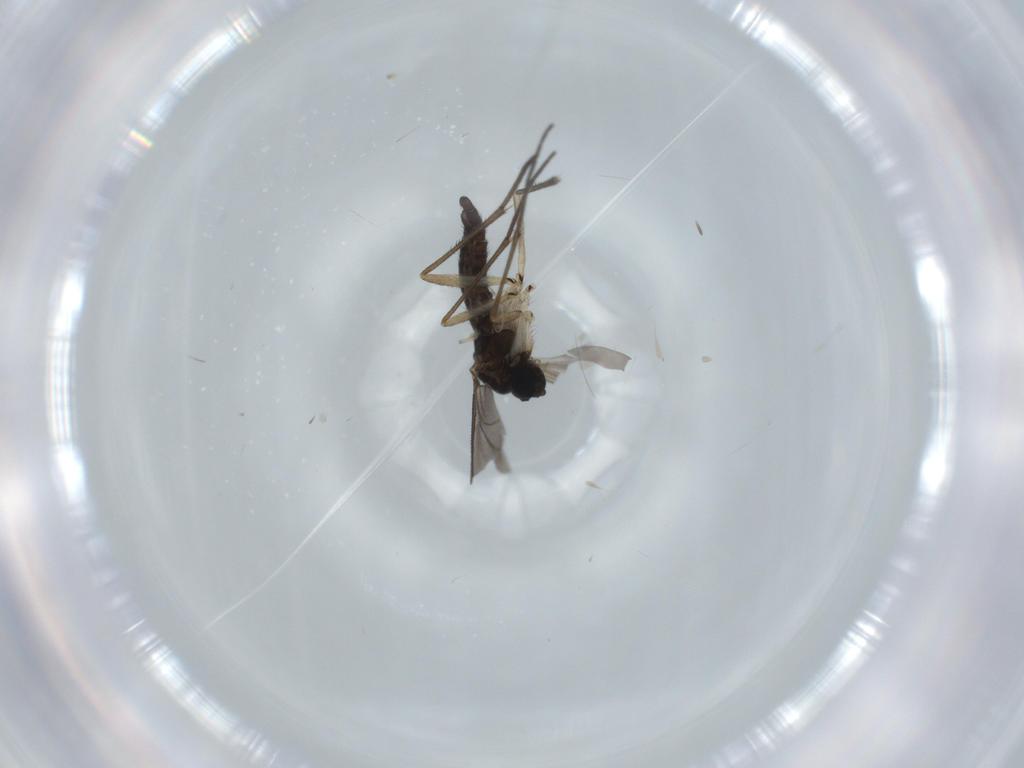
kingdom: Animalia
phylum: Arthropoda
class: Insecta
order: Diptera
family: Sciaridae
